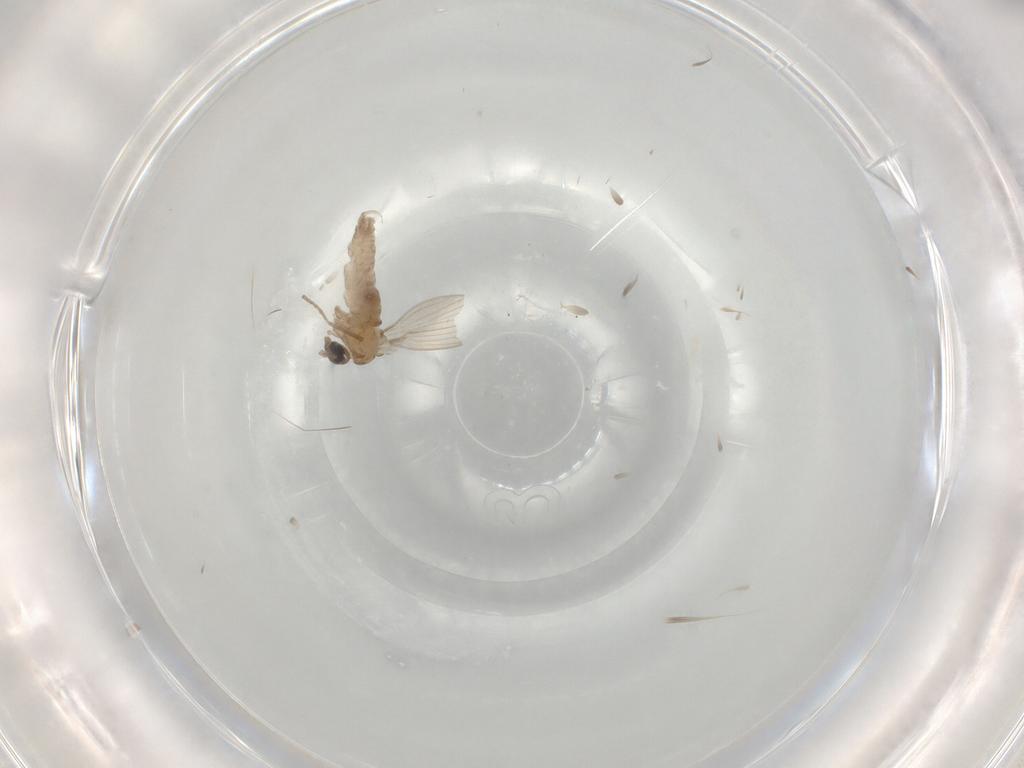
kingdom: Animalia
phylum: Arthropoda
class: Insecta
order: Diptera
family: Psychodidae
